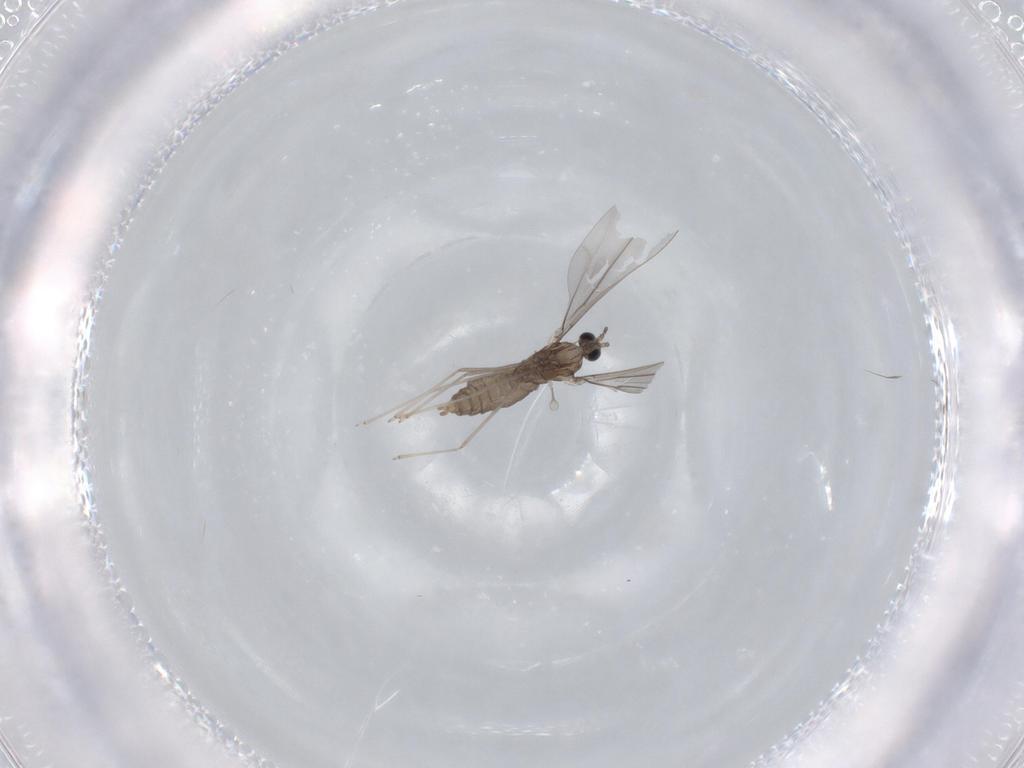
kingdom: Animalia
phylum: Arthropoda
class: Insecta
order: Diptera
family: Cecidomyiidae
